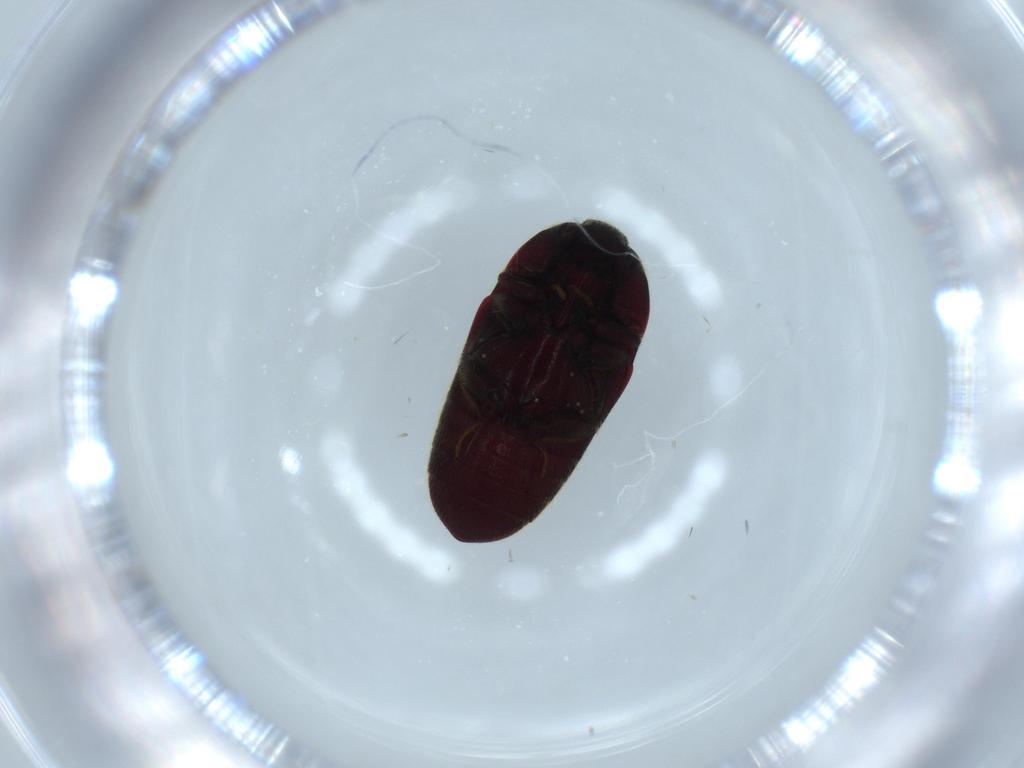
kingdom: Animalia
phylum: Arthropoda
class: Insecta
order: Coleoptera
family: Throscidae
